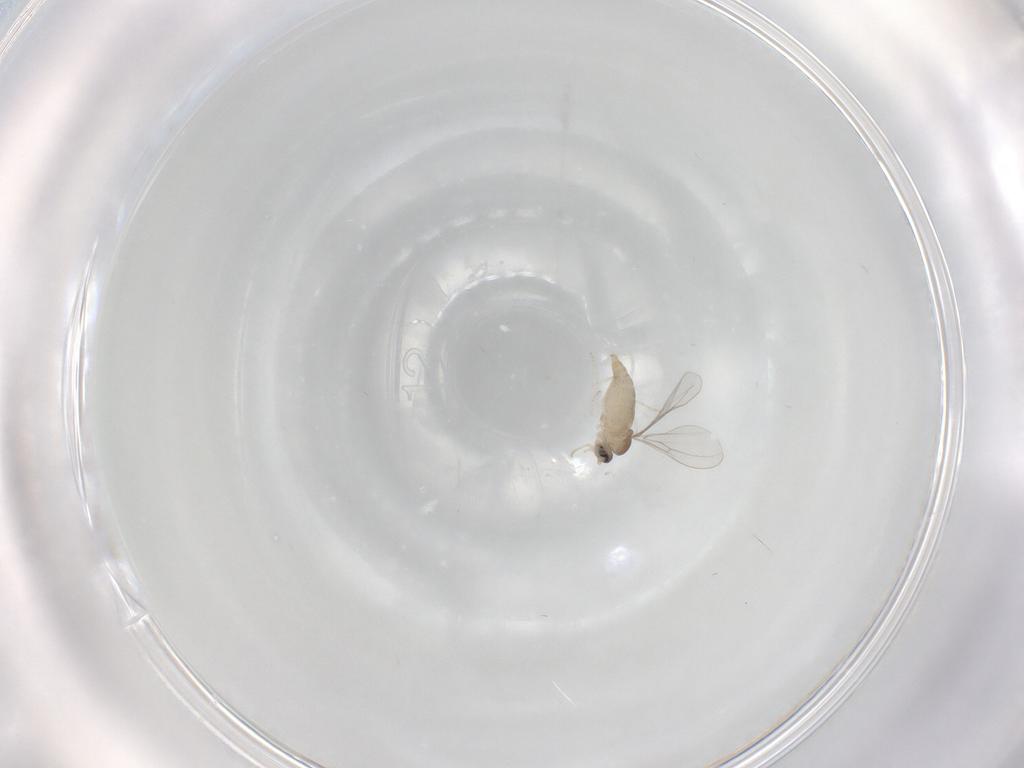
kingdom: Animalia
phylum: Arthropoda
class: Insecta
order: Diptera
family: Cecidomyiidae
